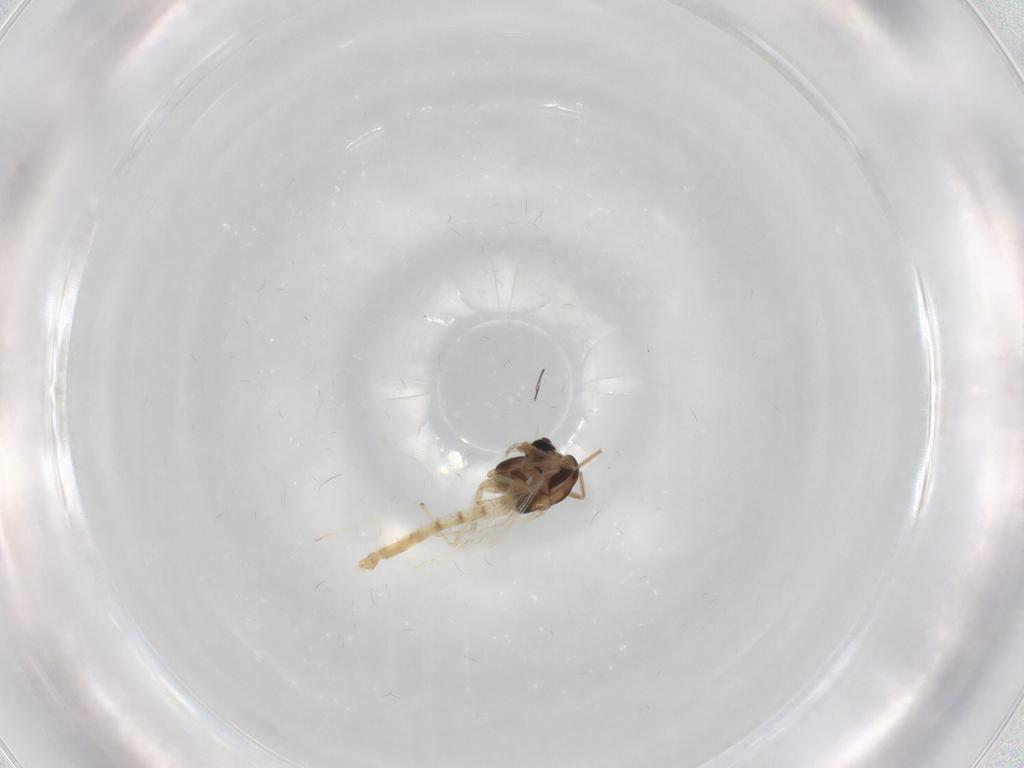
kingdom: Animalia
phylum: Arthropoda
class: Insecta
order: Diptera
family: Chironomidae
